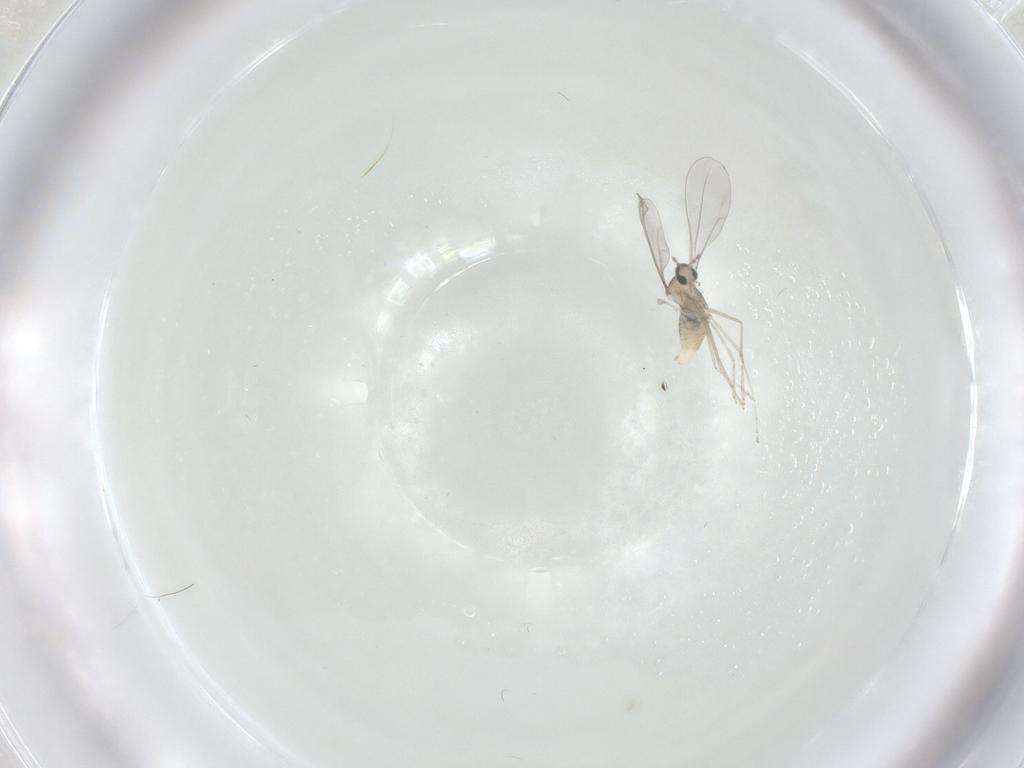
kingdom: Animalia
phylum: Arthropoda
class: Insecta
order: Diptera
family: Cecidomyiidae
